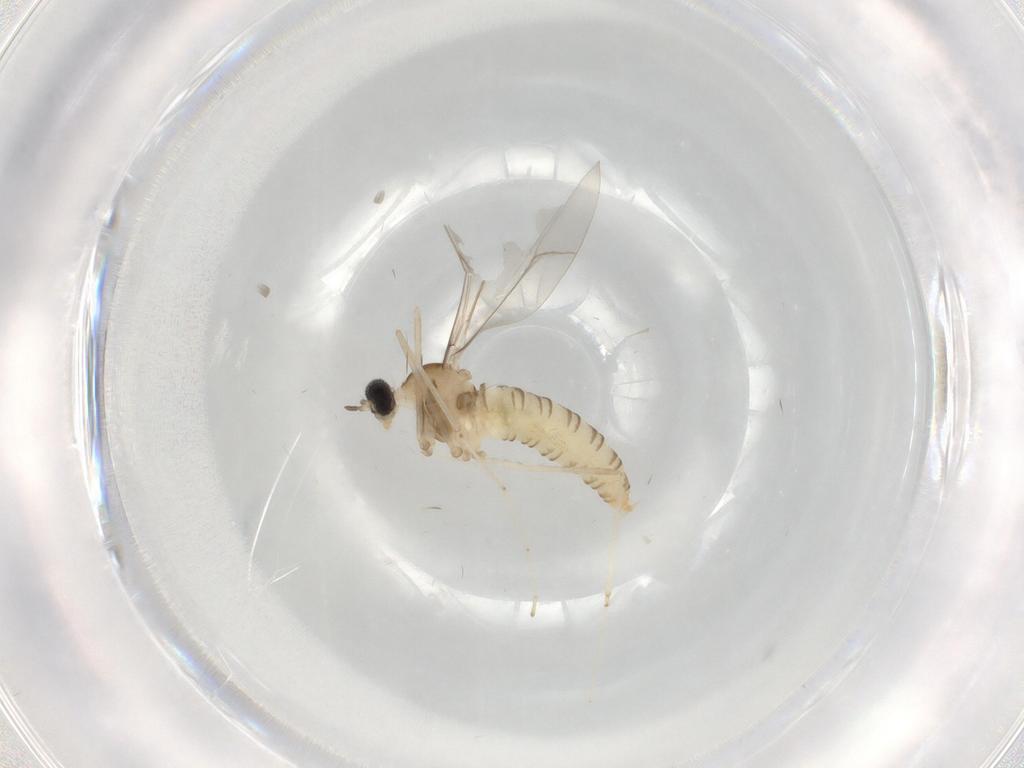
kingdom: Animalia
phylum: Arthropoda
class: Insecta
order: Diptera
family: Cecidomyiidae
